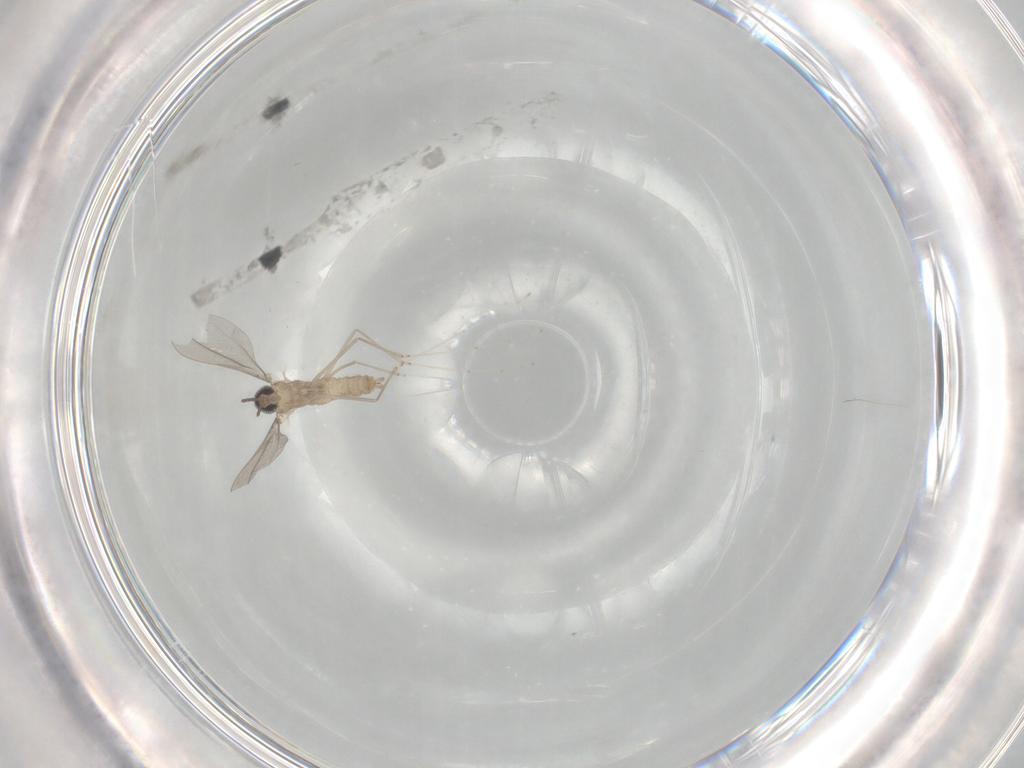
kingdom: Animalia
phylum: Arthropoda
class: Insecta
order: Diptera
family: Cecidomyiidae
